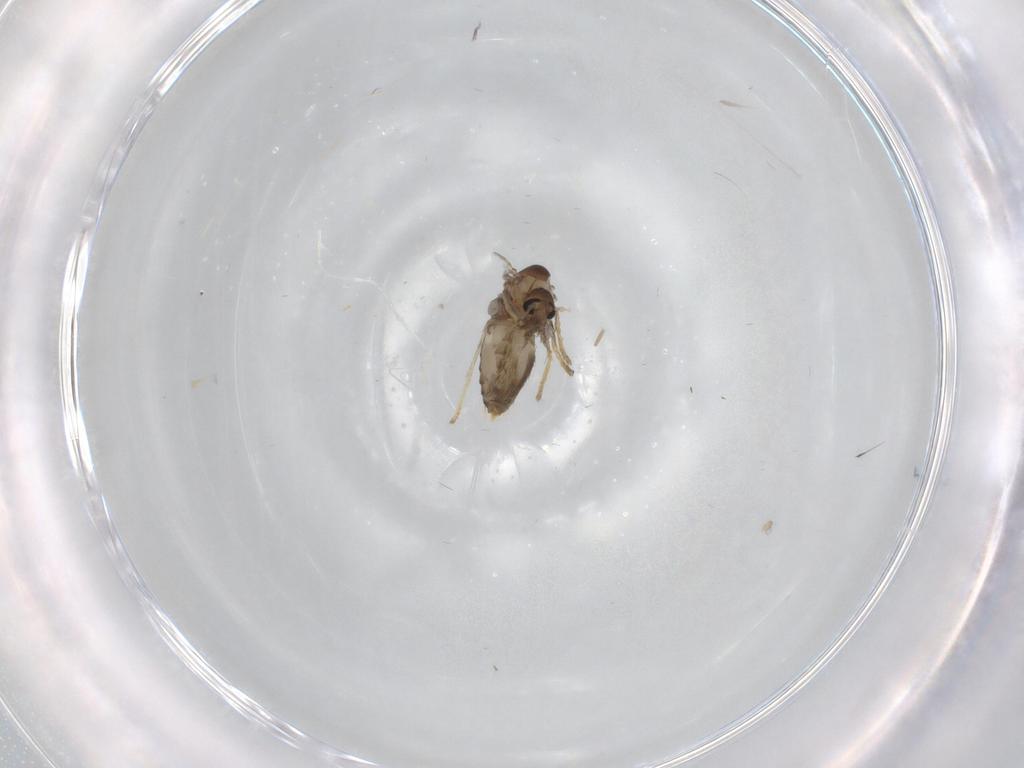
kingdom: Animalia
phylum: Arthropoda
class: Insecta
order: Diptera
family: Psychodidae
